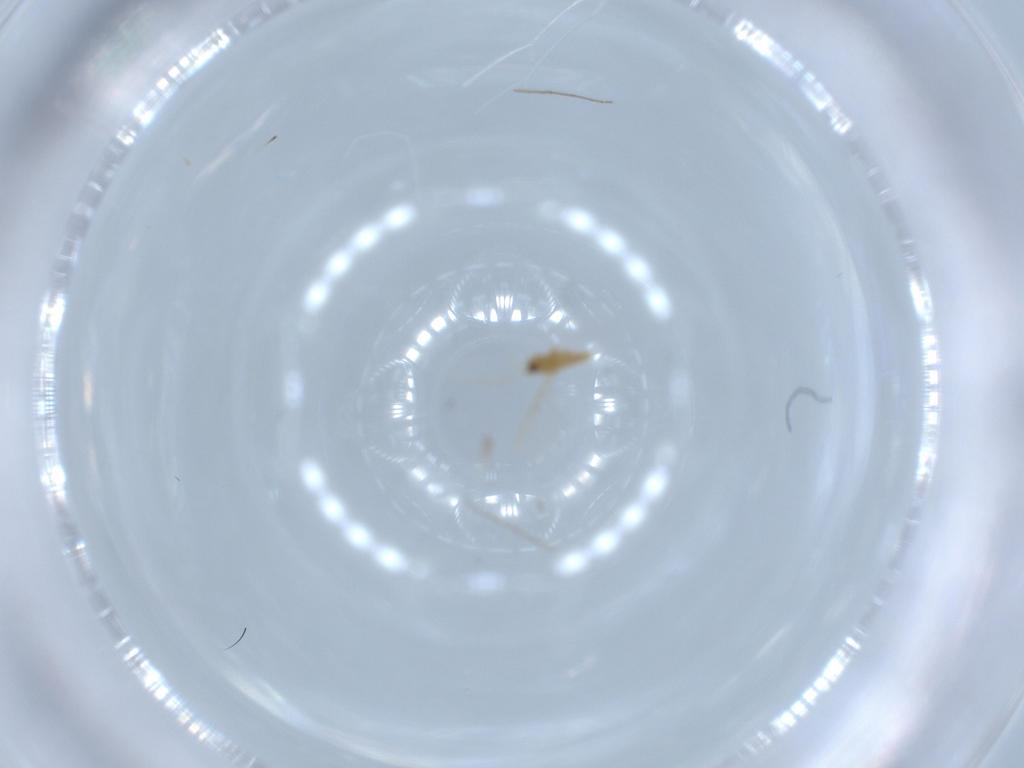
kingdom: Animalia
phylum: Arthropoda
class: Insecta
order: Diptera
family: Chironomidae
